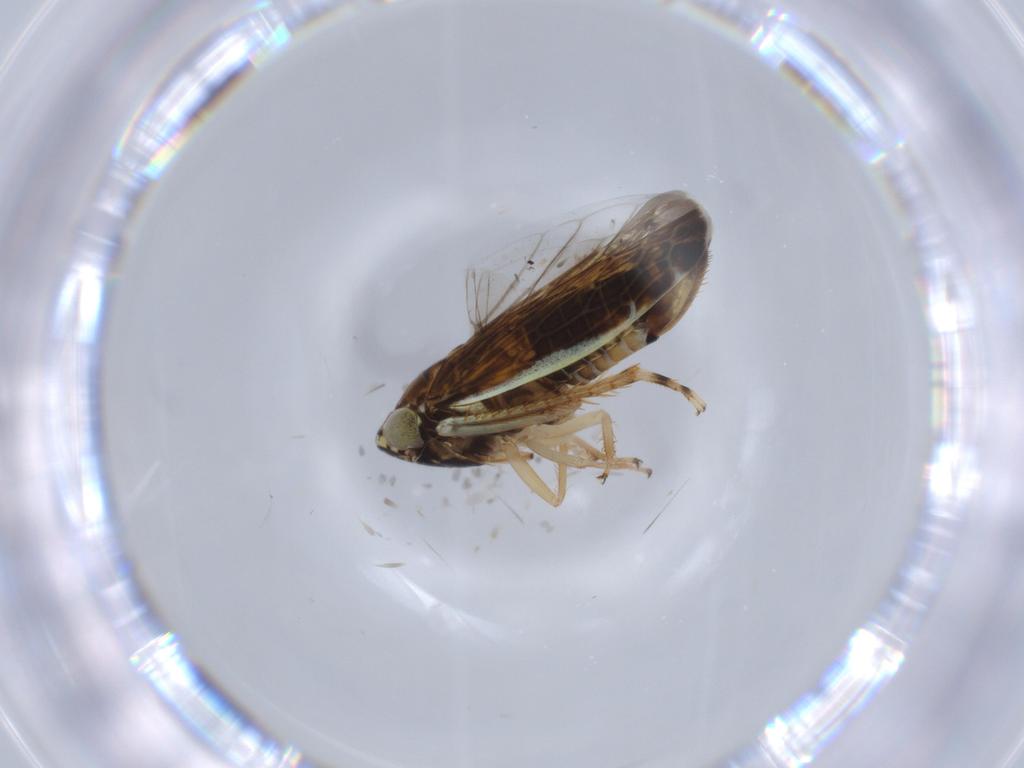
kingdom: Animalia
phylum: Arthropoda
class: Insecta
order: Hemiptera
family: Cicadellidae
